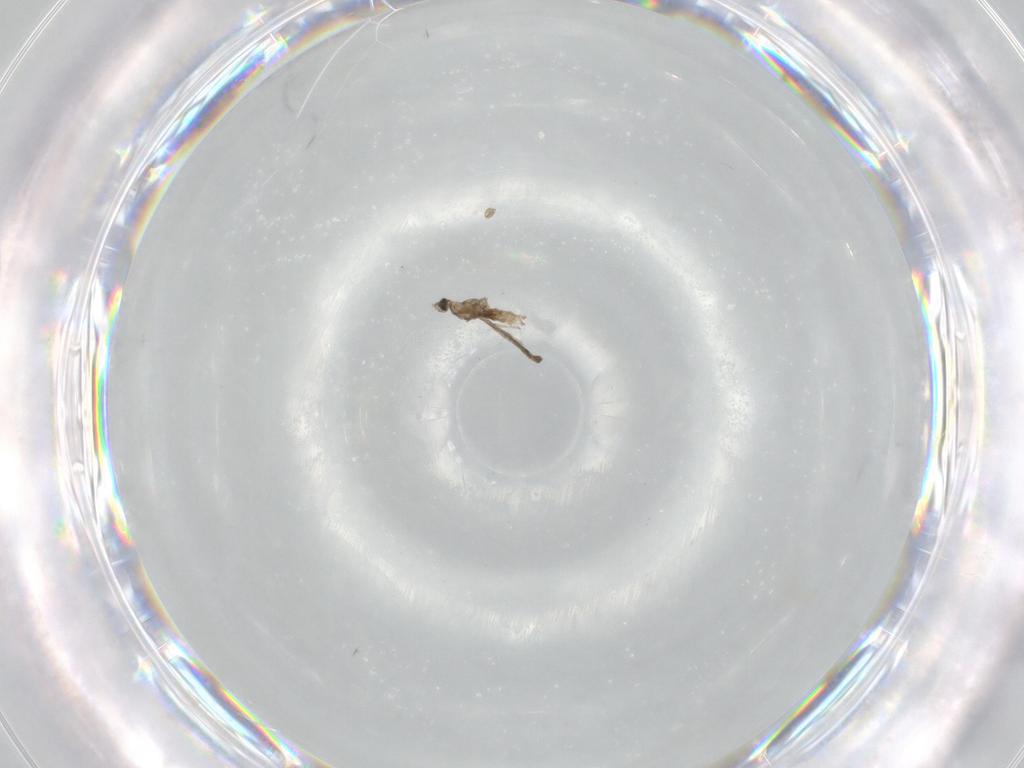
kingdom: Animalia
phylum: Arthropoda
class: Insecta
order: Diptera
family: Cecidomyiidae
